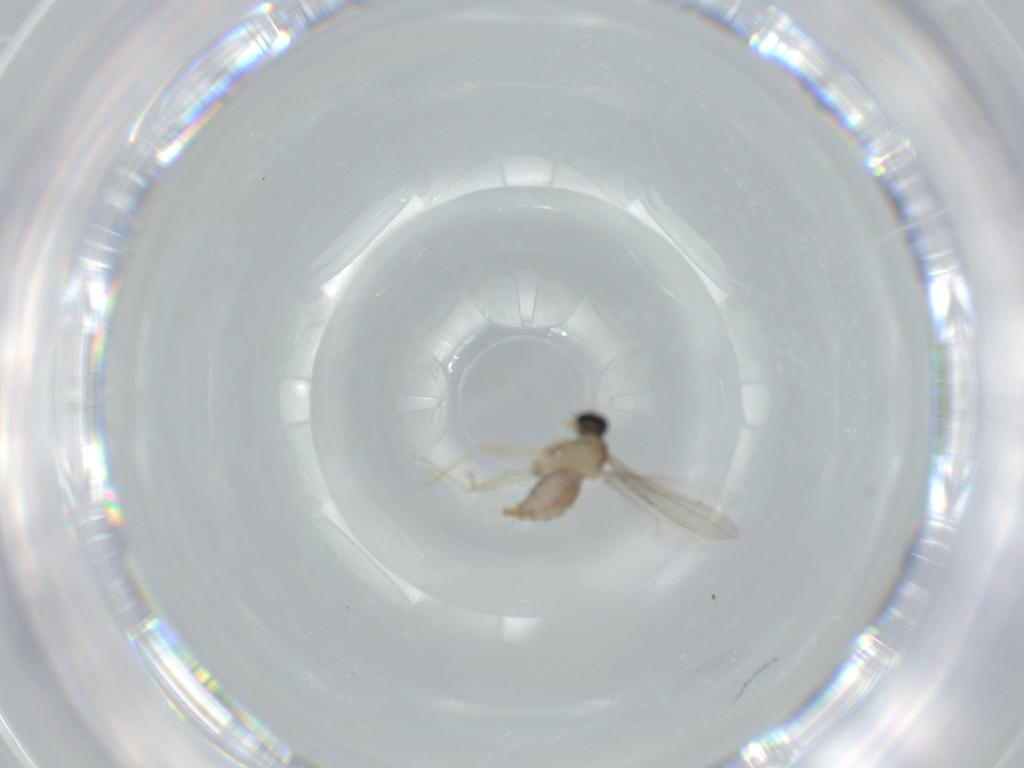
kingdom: Animalia
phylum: Arthropoda
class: Insecta
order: Diptera
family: Cecidomyiidae
